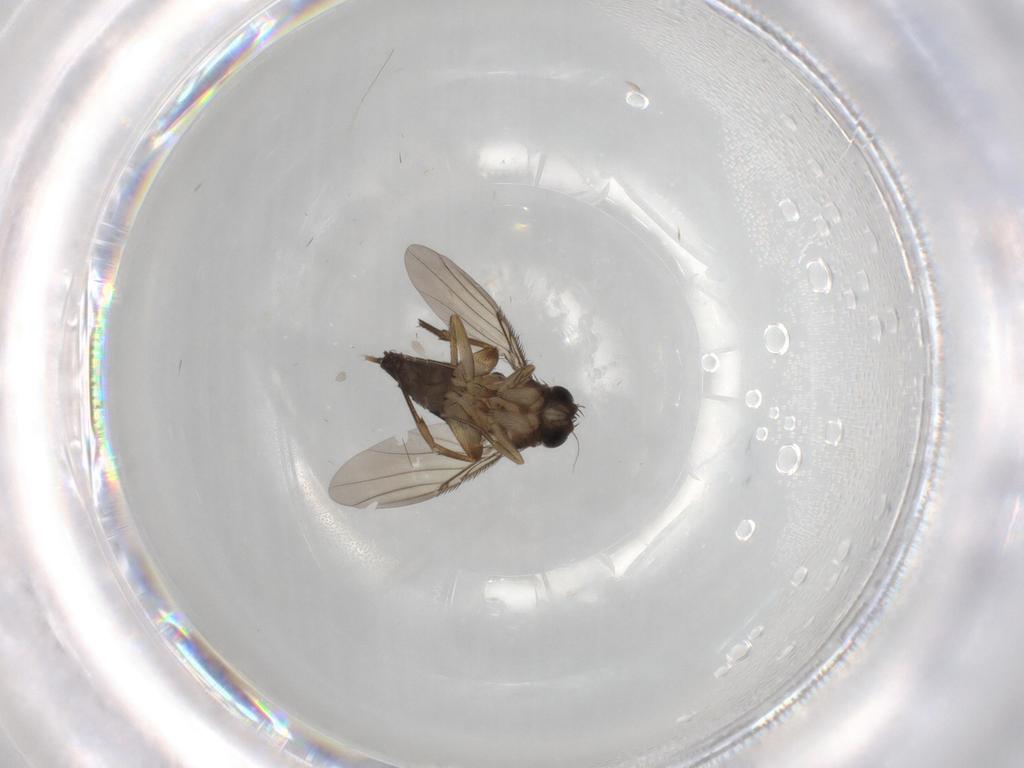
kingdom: Animalia
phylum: Arthropoda
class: Insecta
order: Diptera
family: Phoridae
